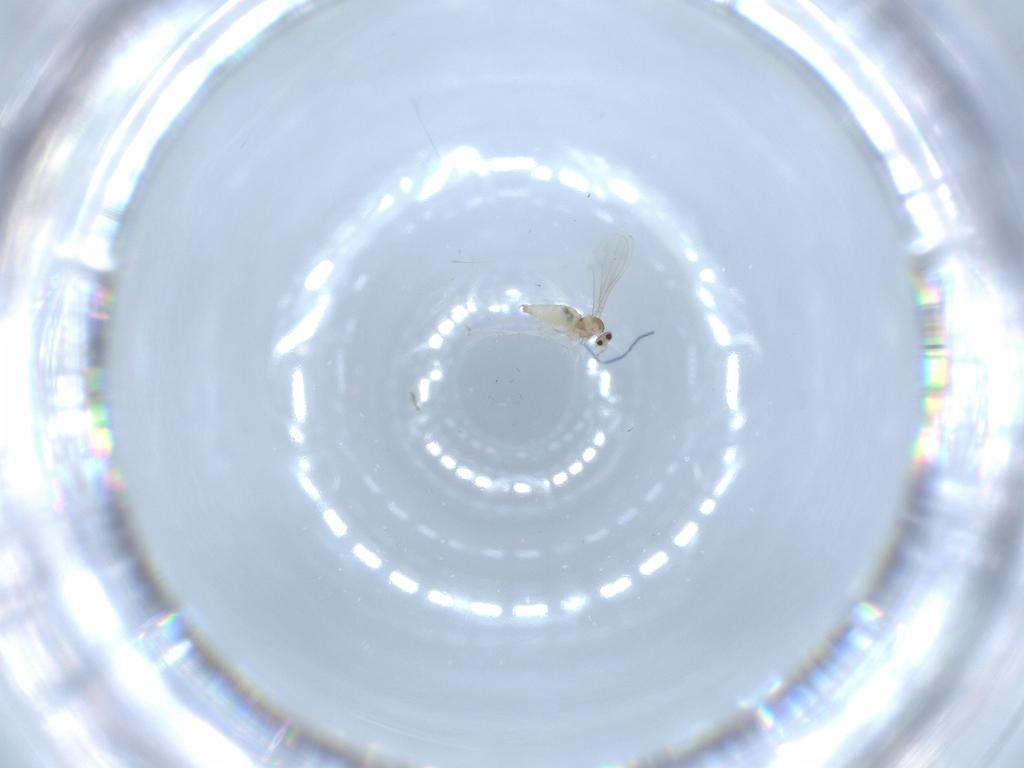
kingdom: Animalia
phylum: Arthropoda
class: Insecta
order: Diptera
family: Cecidomyiidae
